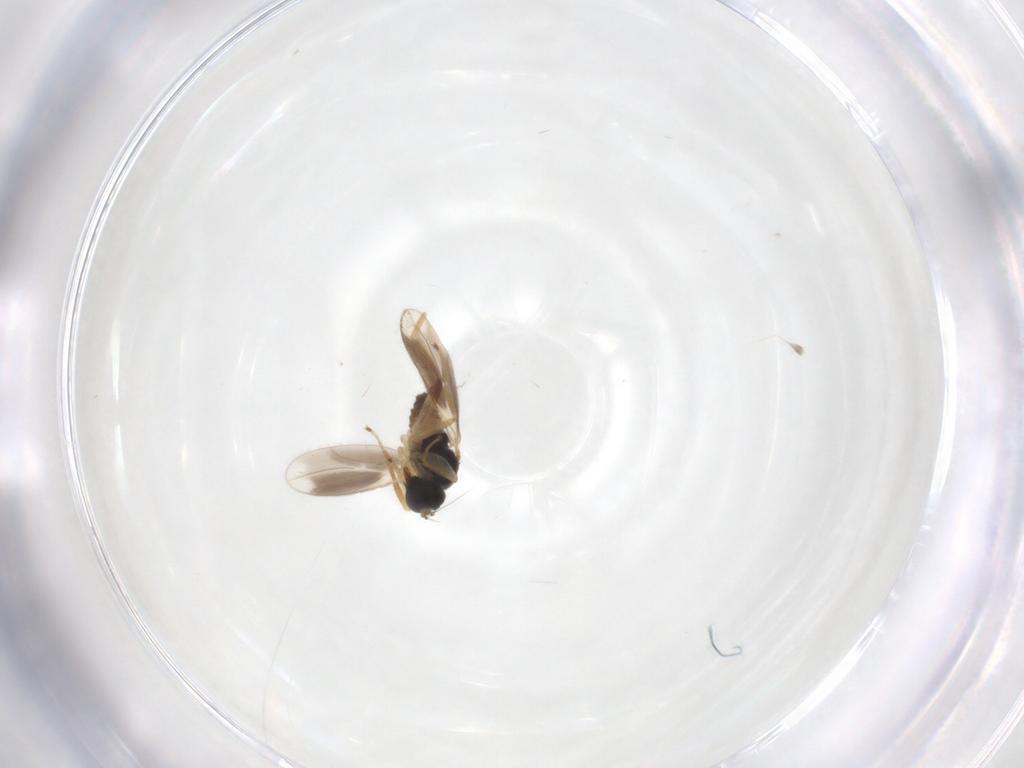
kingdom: Animalia
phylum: Arthropoda
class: Insecta
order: Diptera
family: Hybotidae
